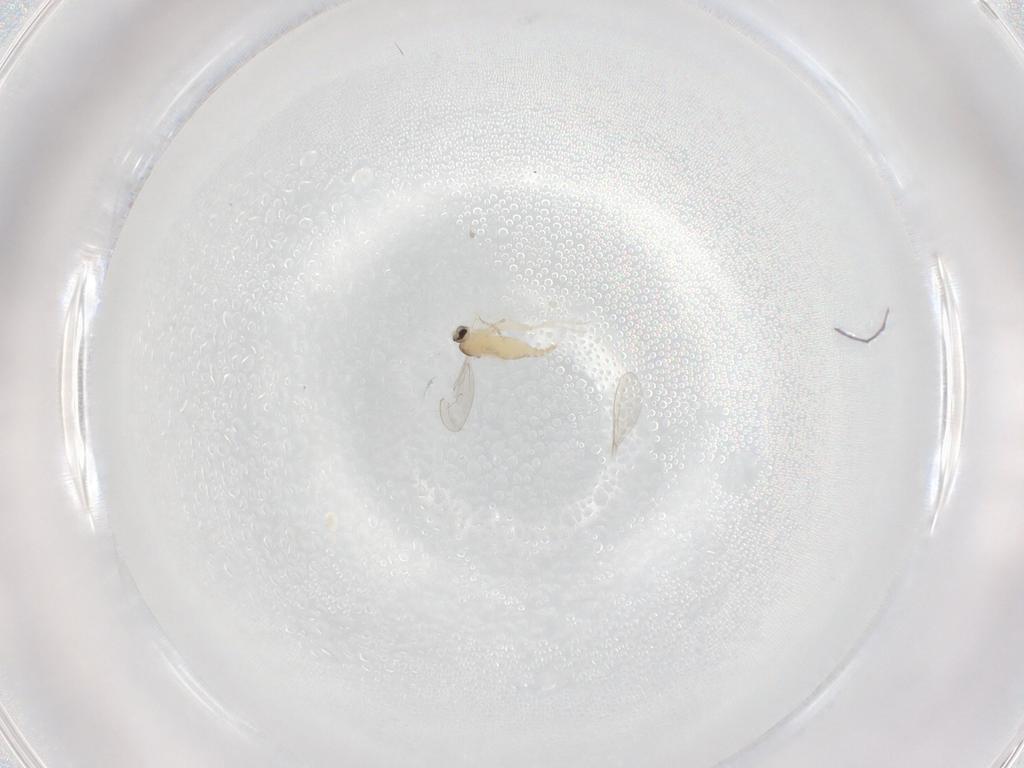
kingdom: Animalia
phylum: Arthropoda
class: Insecta
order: Diptera
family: Cecidomyiidae
